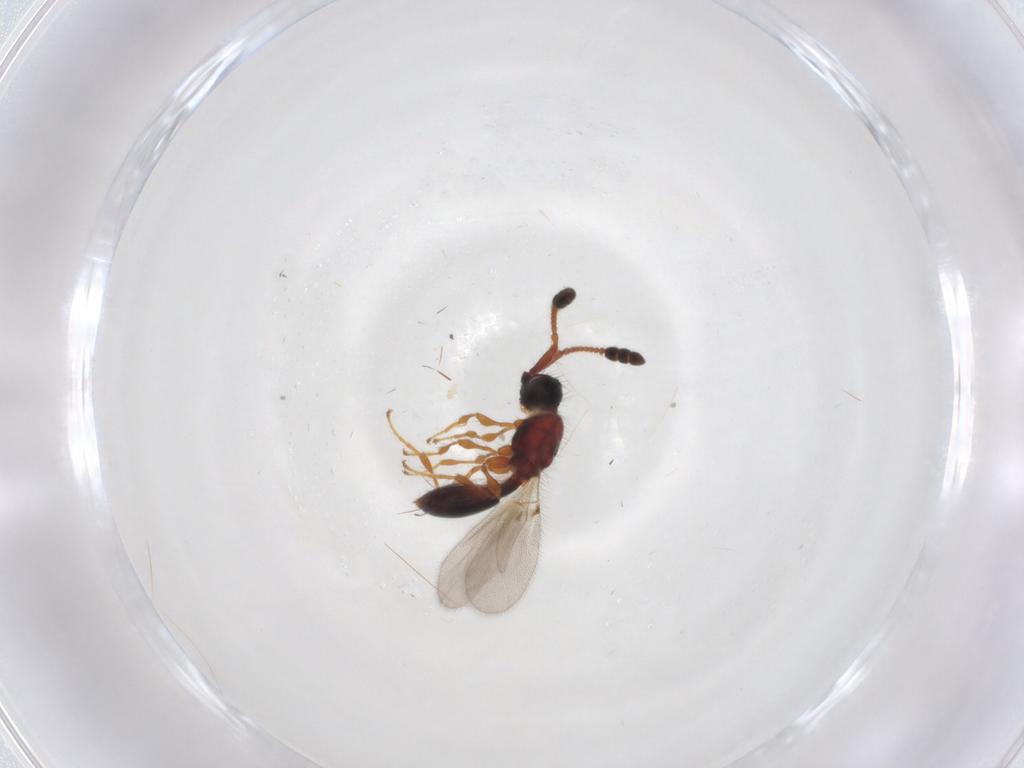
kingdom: Animalia
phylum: Arthropoda
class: Insecta
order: Hymenoptera
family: Diapriidae
